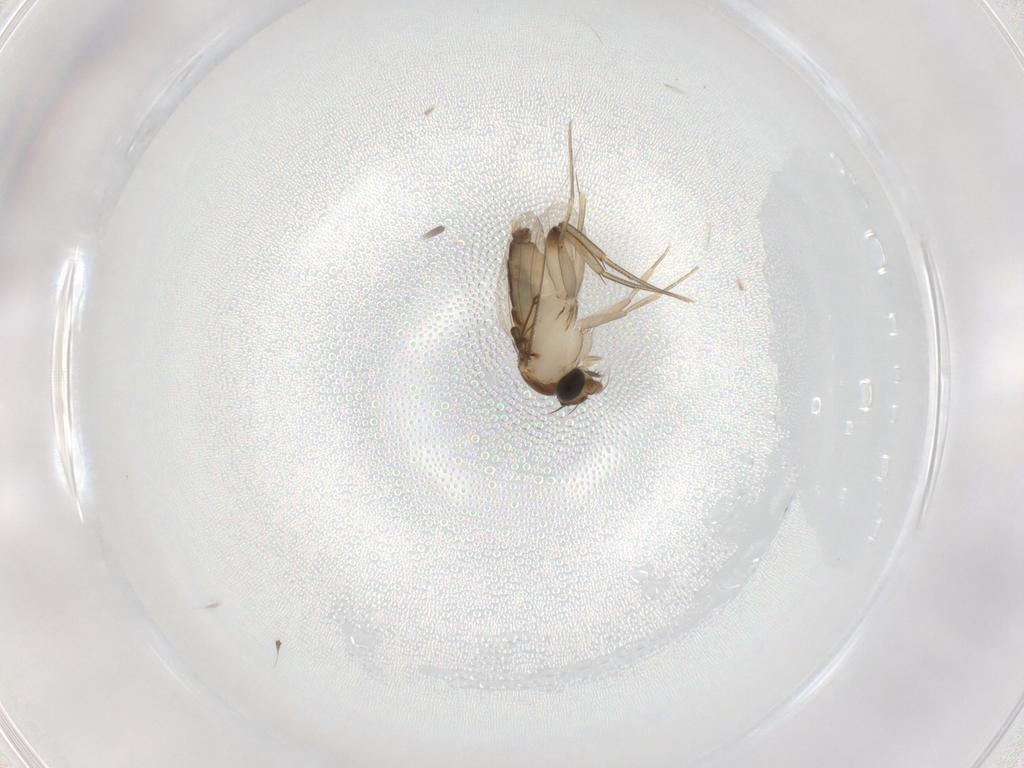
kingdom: Animalia
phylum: Arthropoda
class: Insecta
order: Diptera
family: Phoridae
